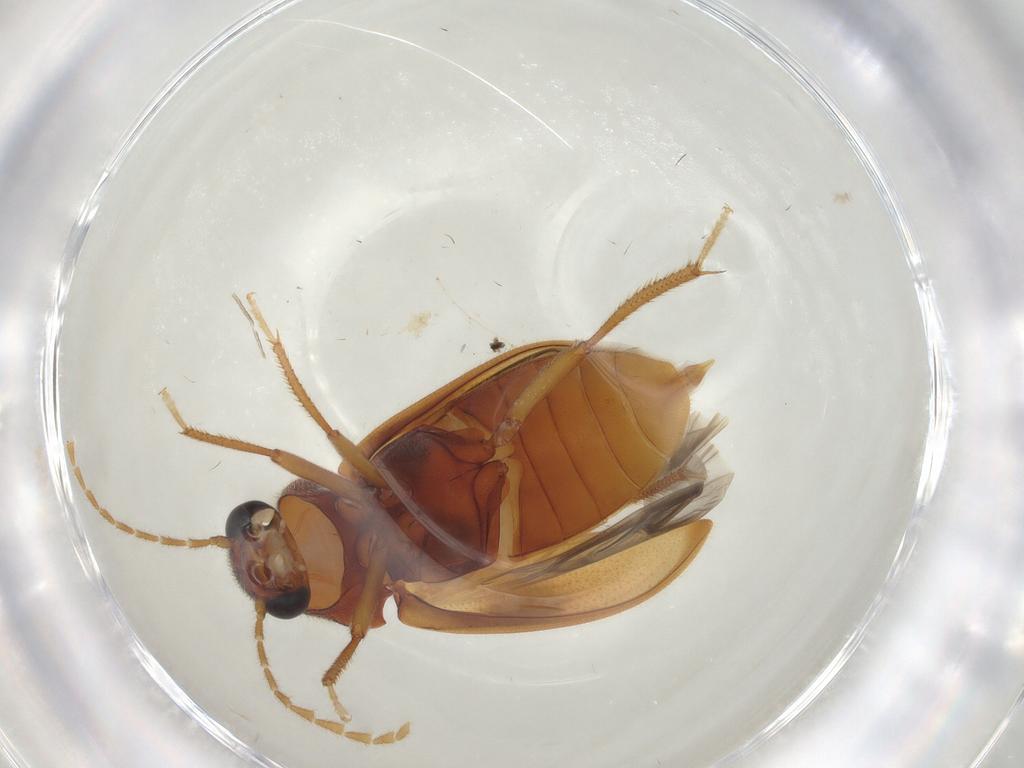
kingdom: Animalia
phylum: Arthropoda
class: Insecta
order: Coleoptera
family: Ptilodactylidae
